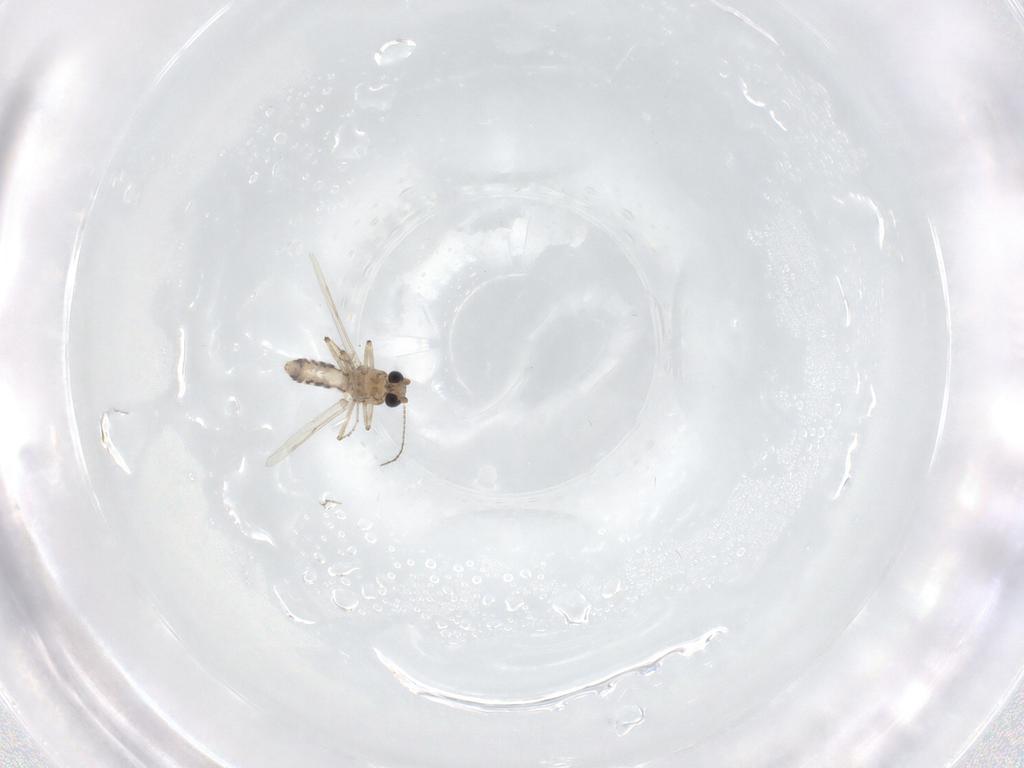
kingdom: Animalia
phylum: Arthropoda
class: Insecta
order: Diptera
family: Ceratopogonidae
